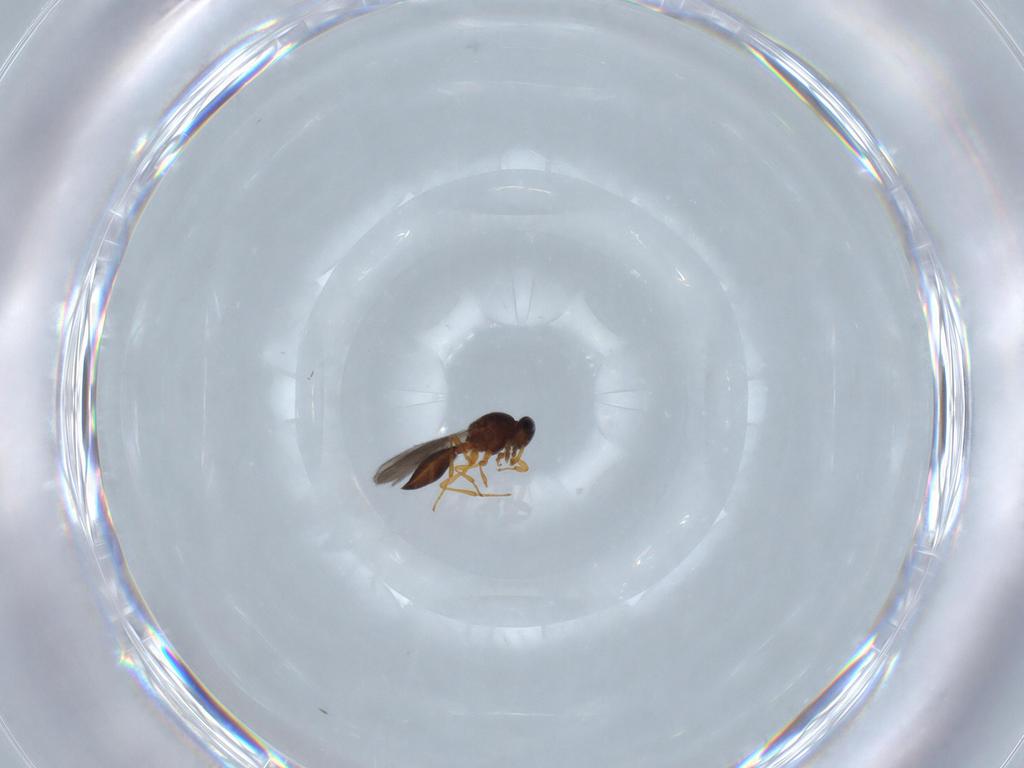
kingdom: Animalia
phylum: Arthropoda
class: Insecta
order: Hymenoptera
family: Platygastridae
